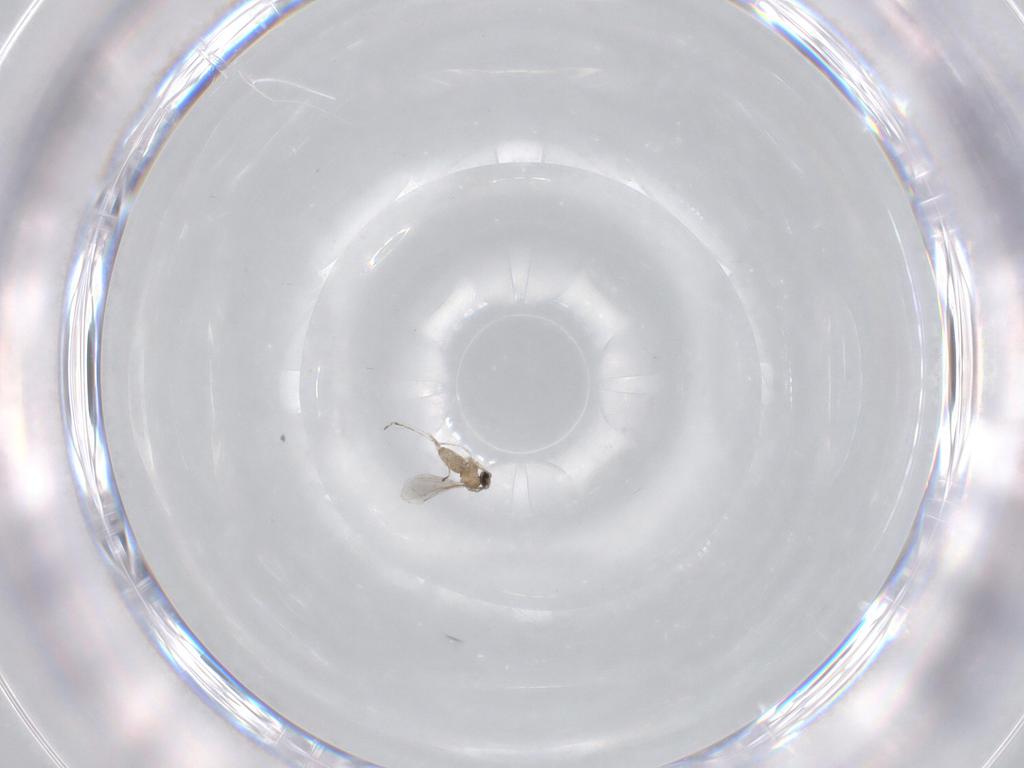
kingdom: Animalia
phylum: Arthropoda
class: Insecta
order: Diptera
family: Cecidomyiidae
